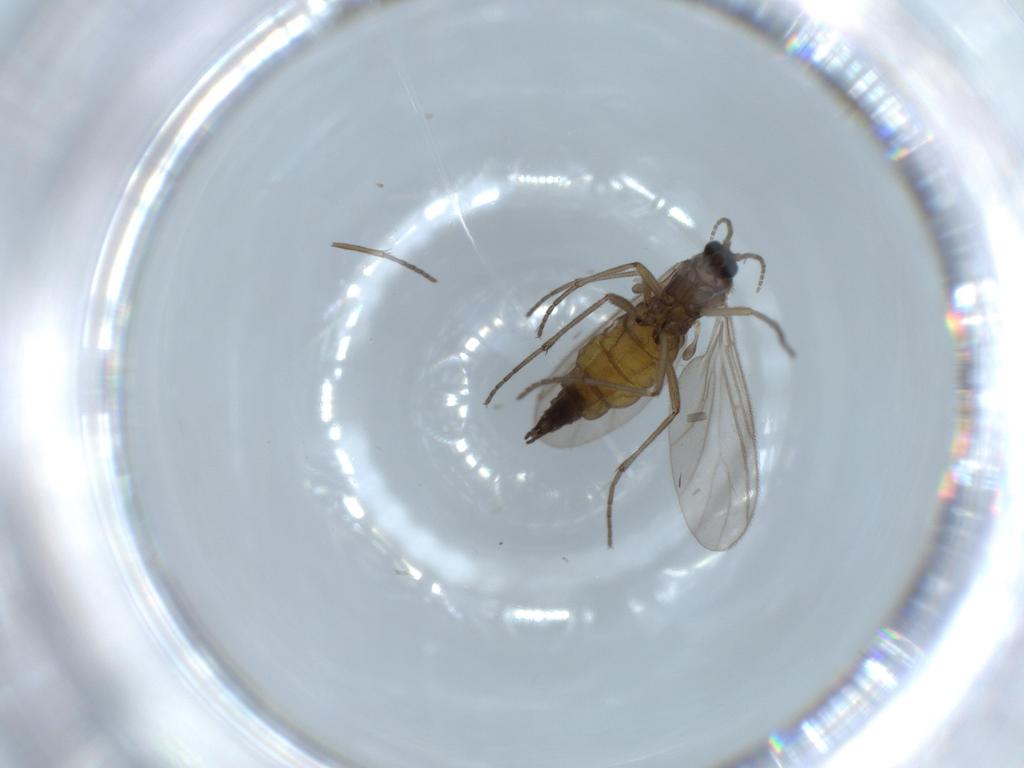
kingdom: Animalia
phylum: Arthropoda
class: Insecta
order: Diptera
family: Sciaridae
